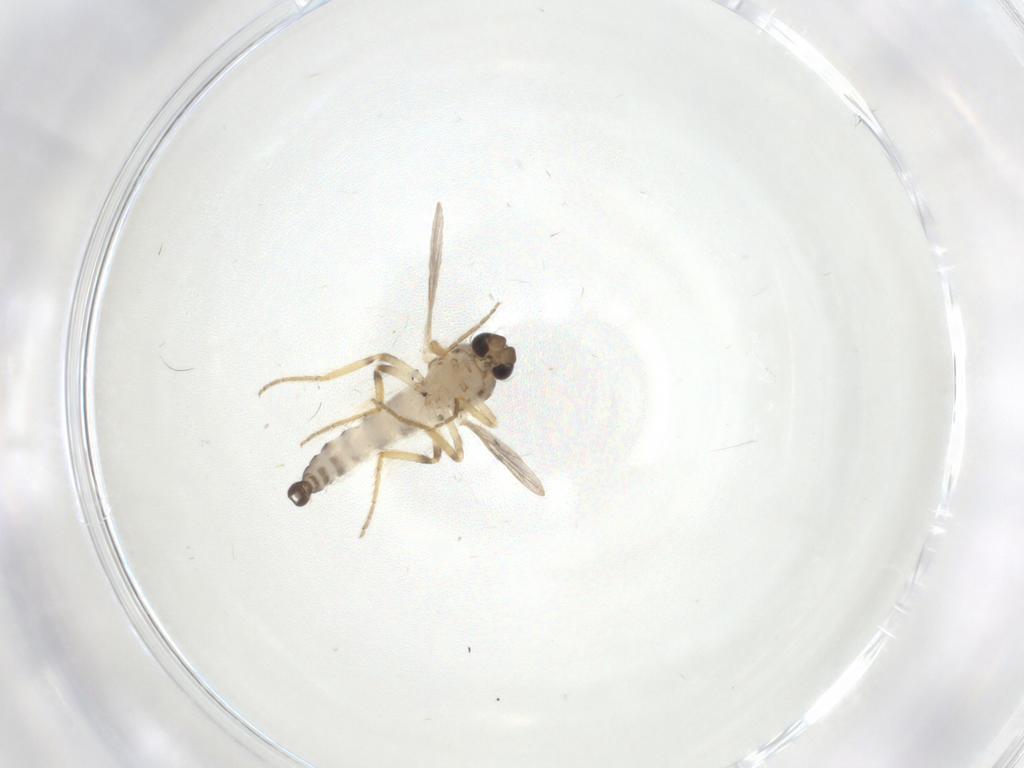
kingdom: Animalia
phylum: Arthropoda
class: Insecta
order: Diptera
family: Ceratopogonidae
